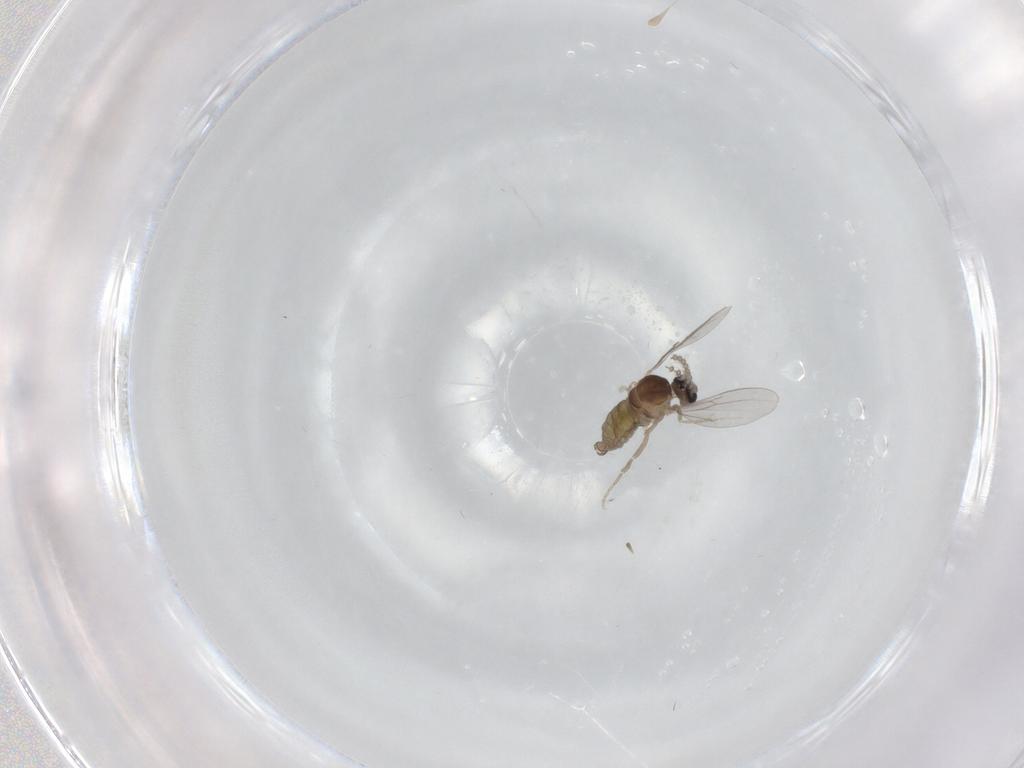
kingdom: Animalia
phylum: Arthropoda
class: Insecta
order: Diptera
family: Cecidomyiidae
